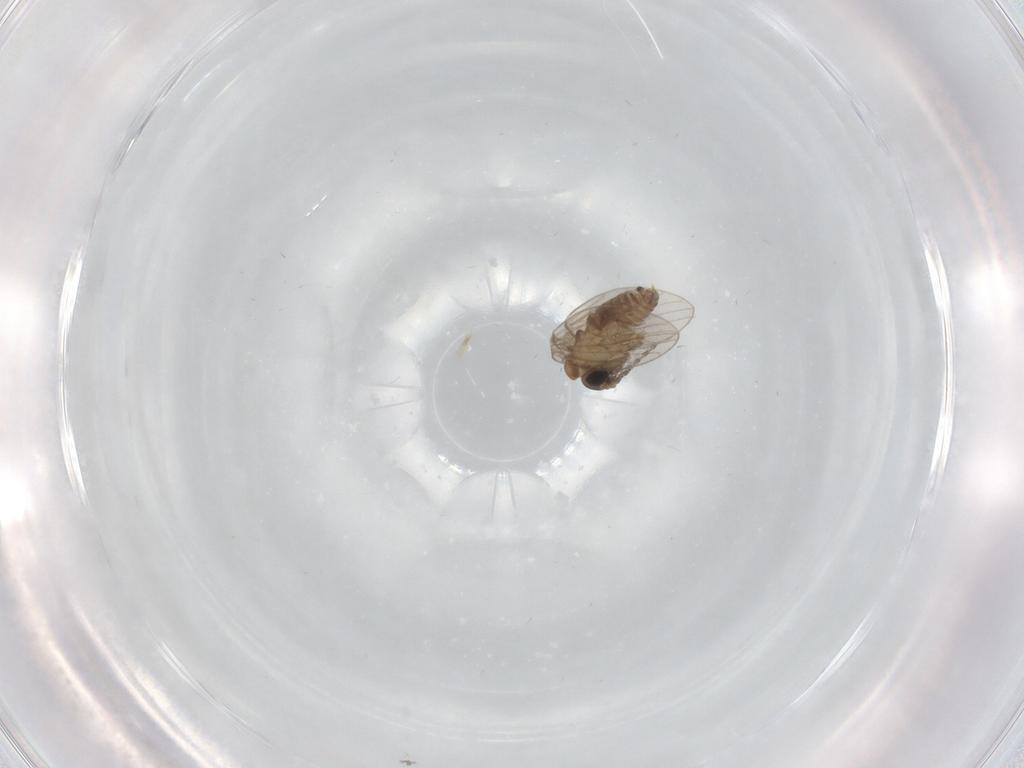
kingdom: Animalia
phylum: Arthropoda
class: Insecta
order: Diptera
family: Psychodidae
